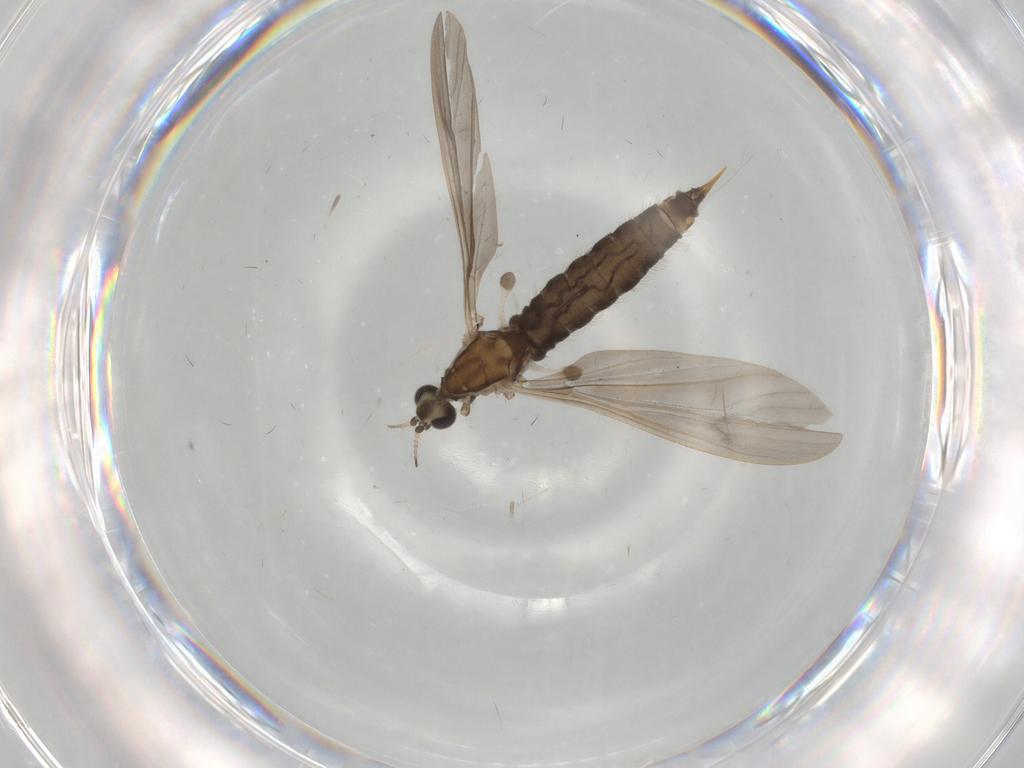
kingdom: Animalia
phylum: Arthropoda
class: Insecta
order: Diptera
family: Limoniidae
